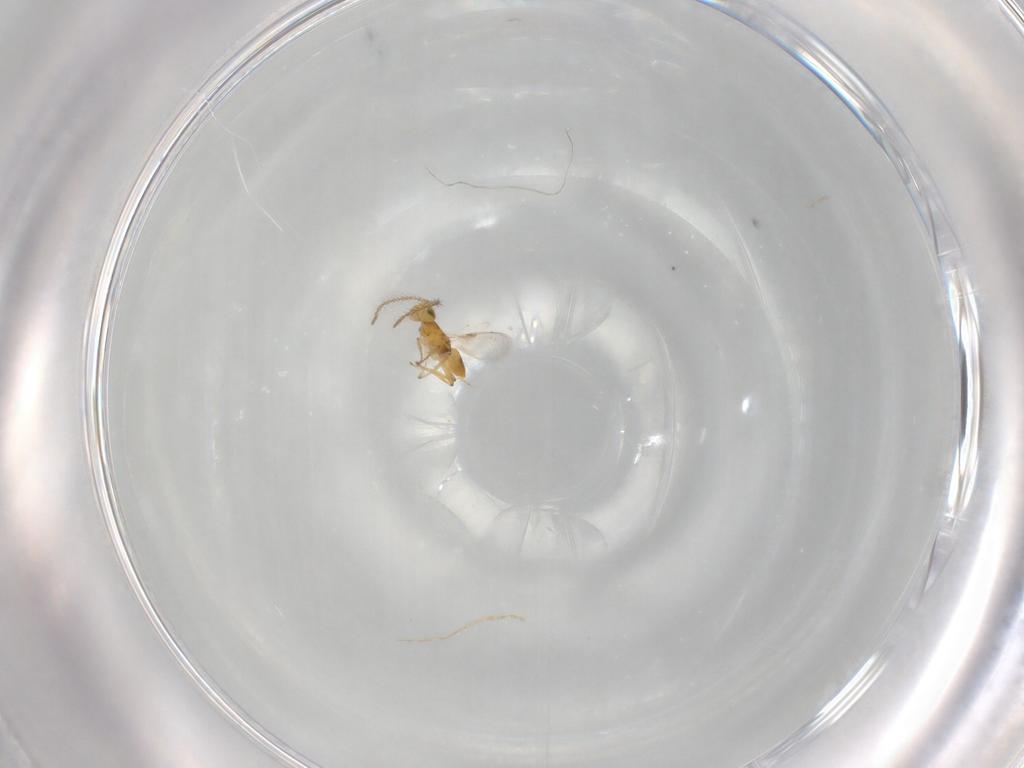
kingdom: Animalia
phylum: Arthropoda
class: Insecta
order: Hymenoptera
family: Encyrtidae
